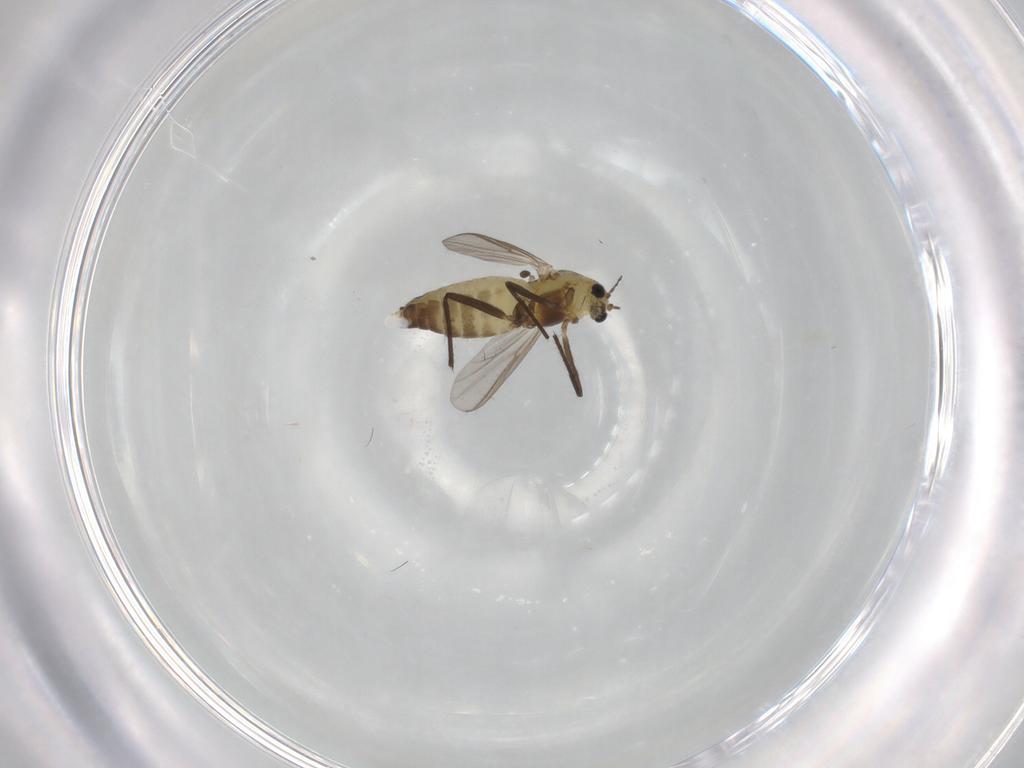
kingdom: Animalia
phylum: Arthropoda
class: Insecta
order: Diptera
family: Chironomidae
